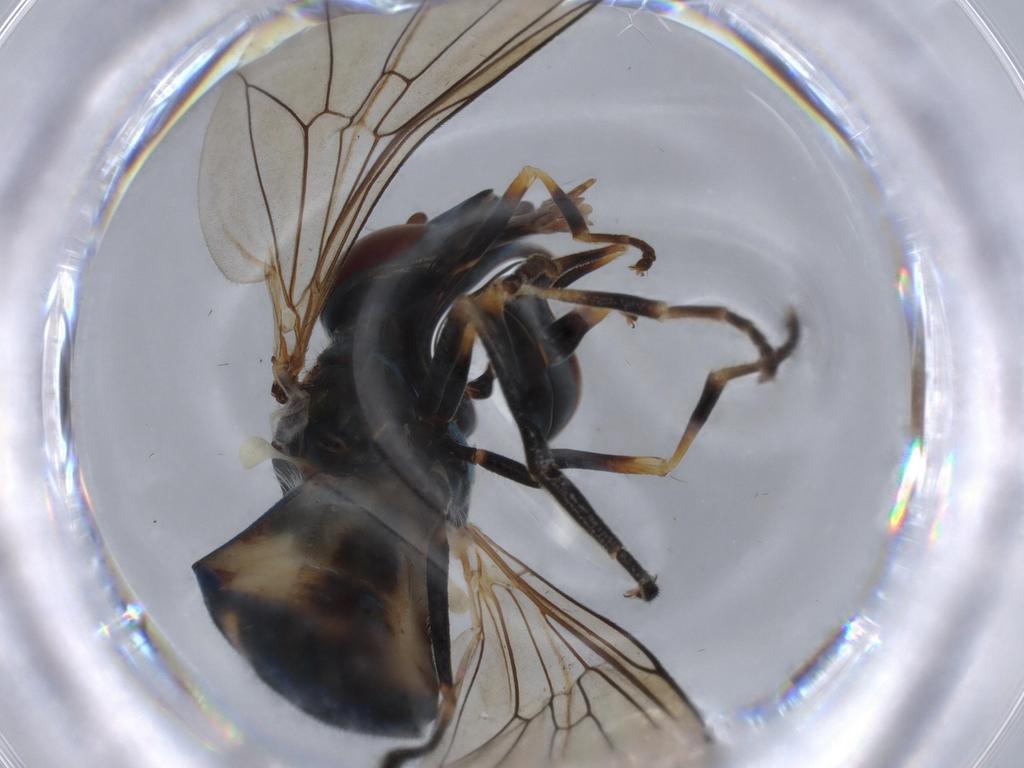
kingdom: Animalia
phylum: Arthropoda
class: Insecta
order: Diptera
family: Syrphidae
